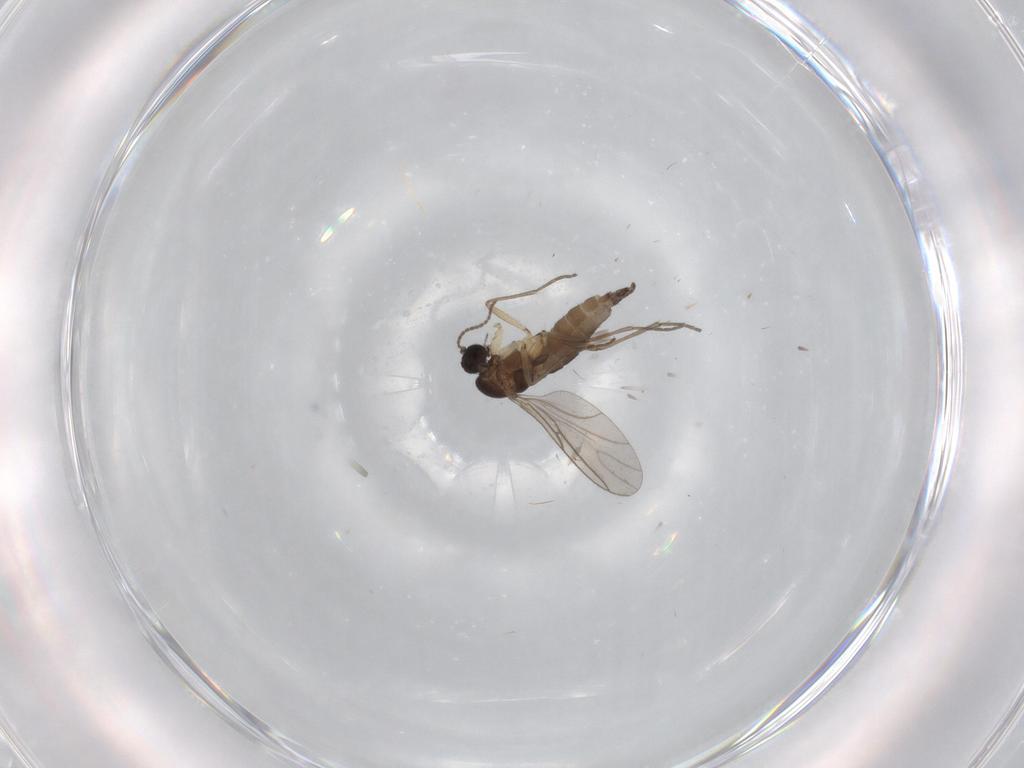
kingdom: Animalia
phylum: Arthropoda
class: Insecta
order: Diptera
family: Sciaridae
